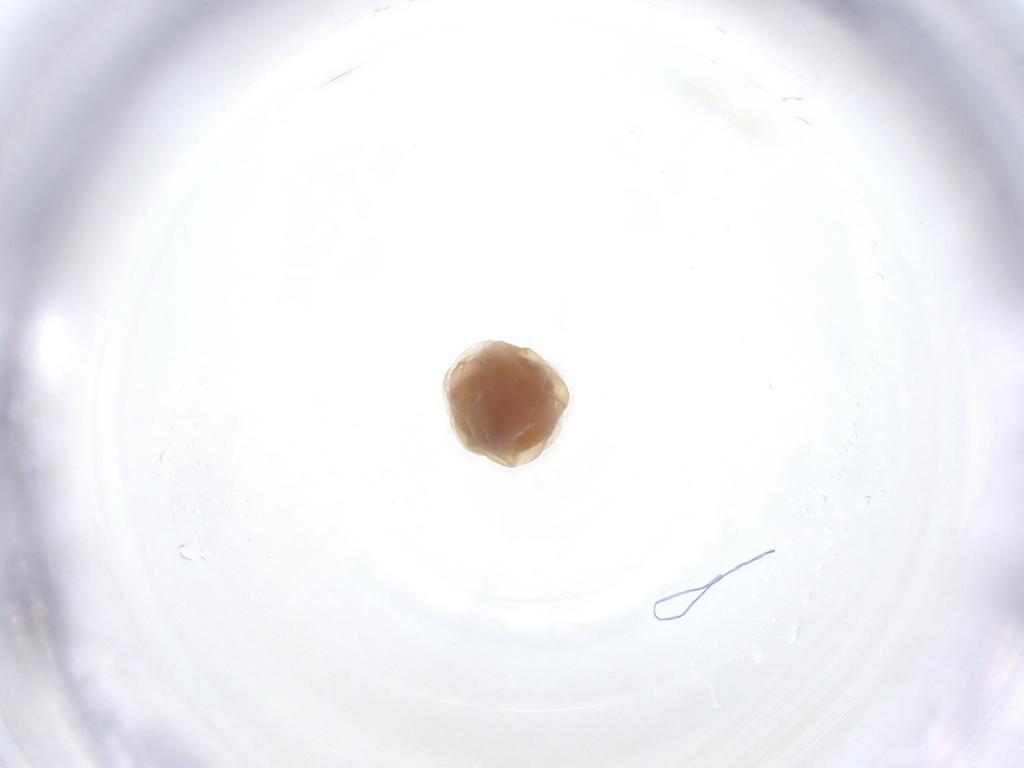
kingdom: Animalia
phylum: Arthropoda
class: Insecta
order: Diptera
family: Dolichopodidae
